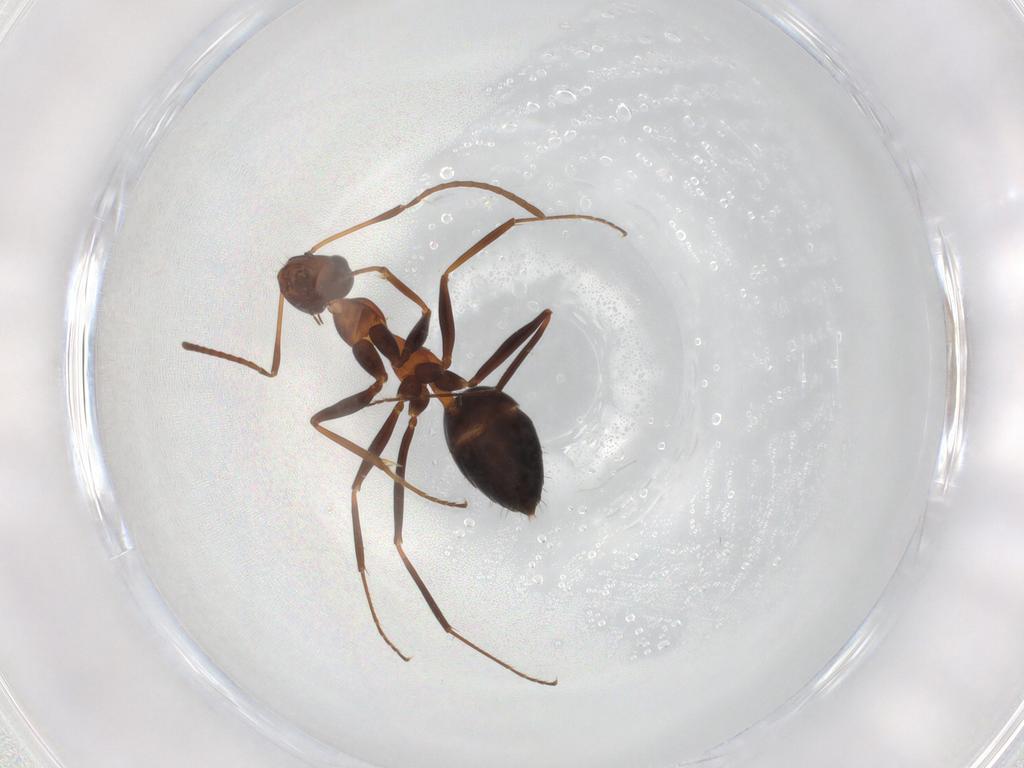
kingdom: Animalia
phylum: Arthropoda
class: Insecta
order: Hymenoptera
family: Formicidae
